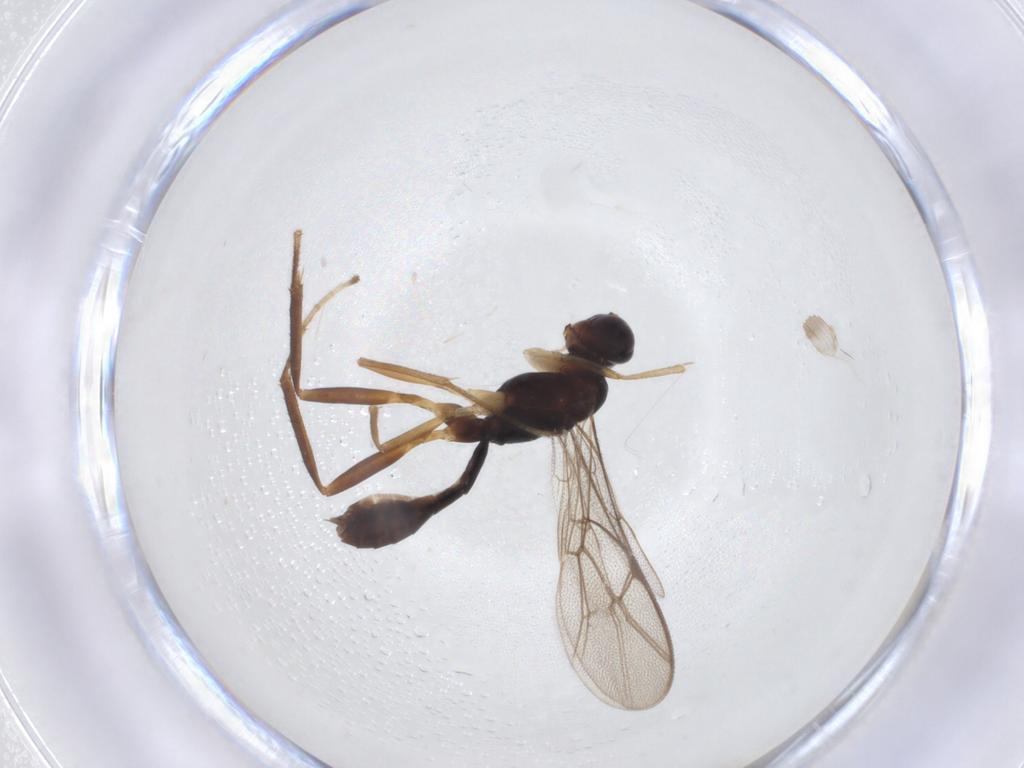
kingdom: Animalia
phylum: Arthropoda
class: Insecta
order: Hymenoptera
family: Ichneumonidae
